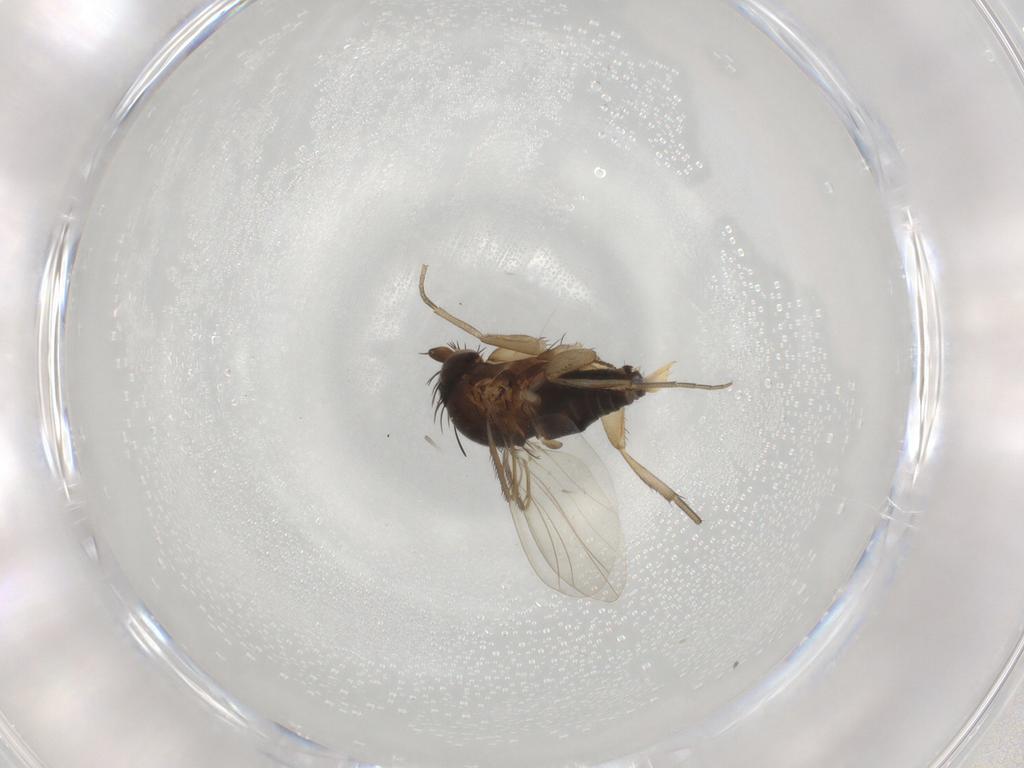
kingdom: Animalia
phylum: Arthropoda
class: Insecta
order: Diptera
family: Phoridae
